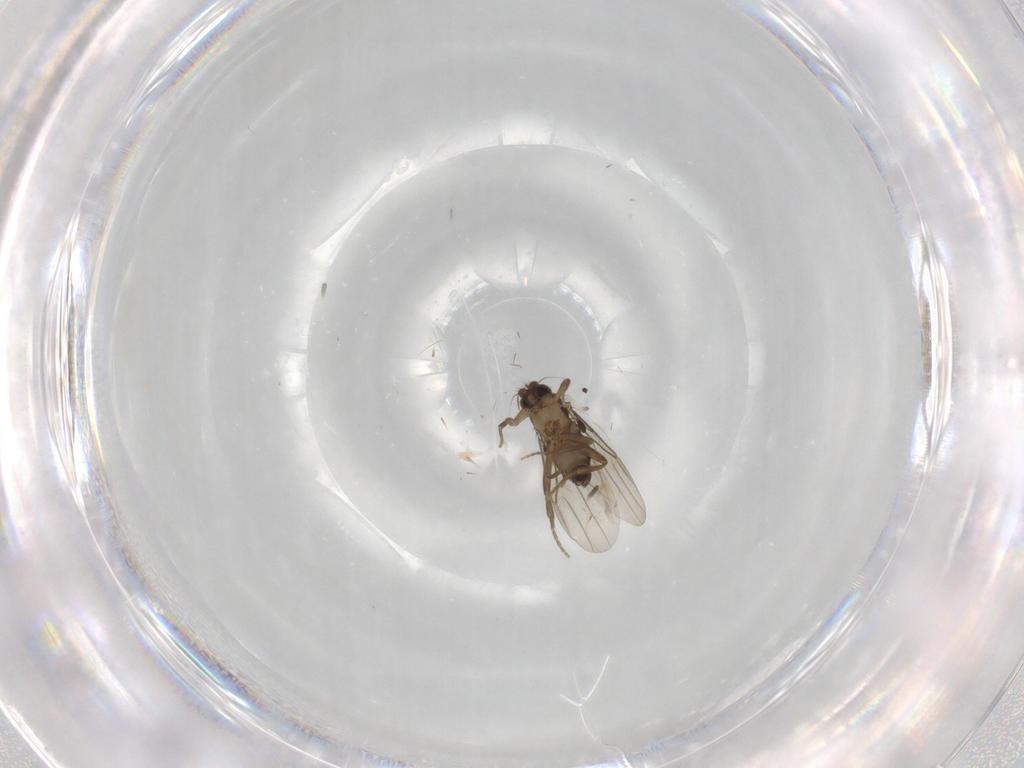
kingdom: Animalia
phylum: Arthropoda
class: Insecta
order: Diptera
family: Phoridae
